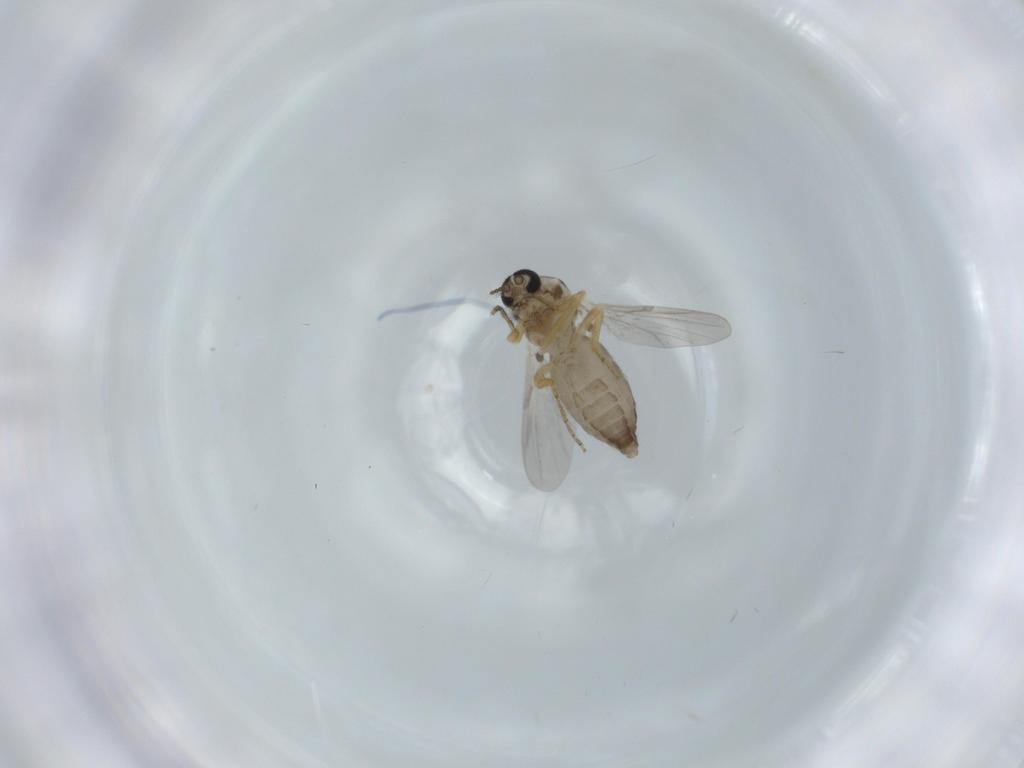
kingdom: Animalia
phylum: Arthropoda
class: Insecta
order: Diptera
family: Ceratopogonidae
